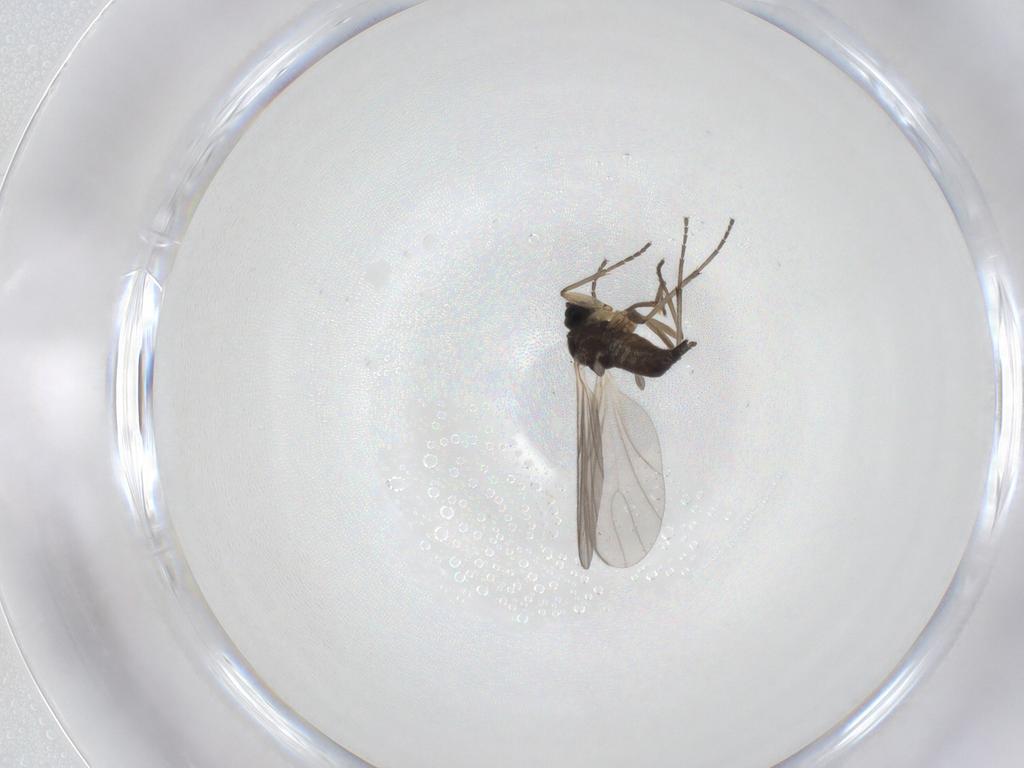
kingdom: Animalia
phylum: Arthropoda
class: Insecta
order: Diptera
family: Sciaridae
